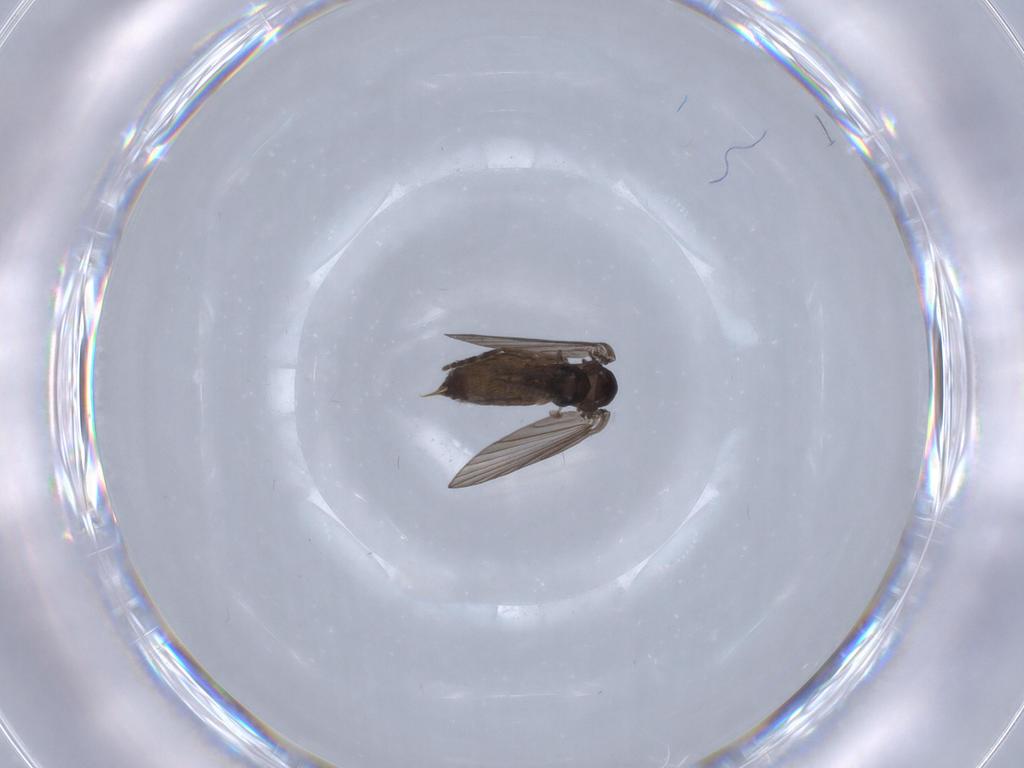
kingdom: Animalia
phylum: Arthropoda
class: Insecta
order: Diptera
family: Psychodidae
